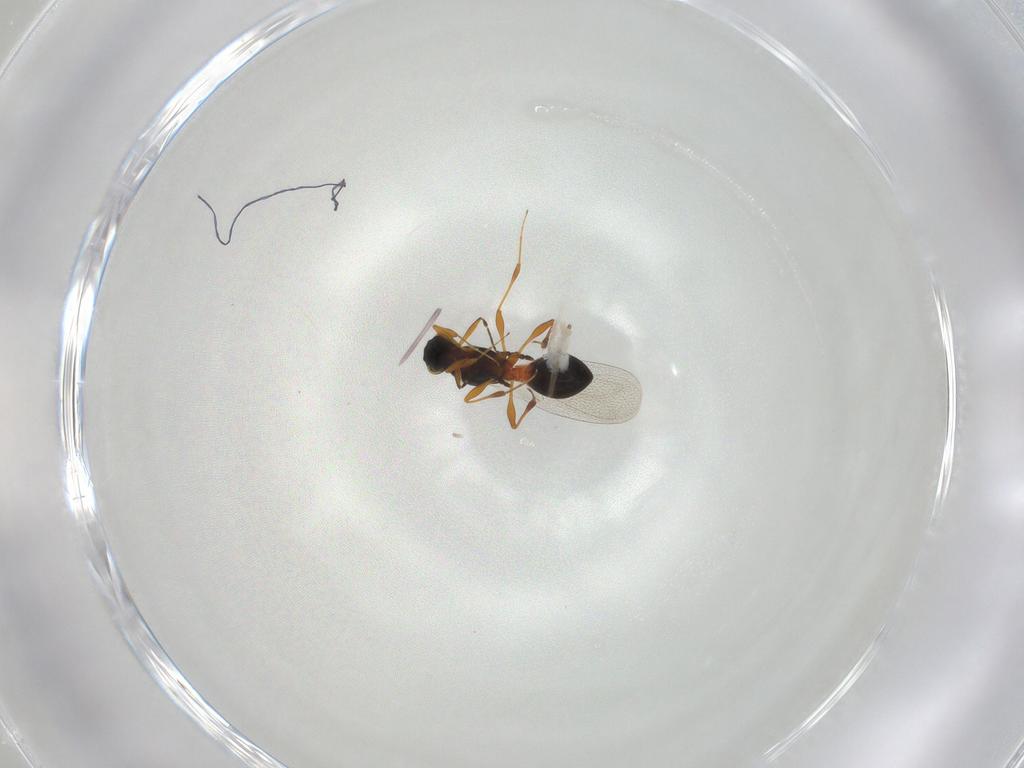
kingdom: Animalia
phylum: Arthropoda
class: Insecta
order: Hymenoptera
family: Platygastridae
